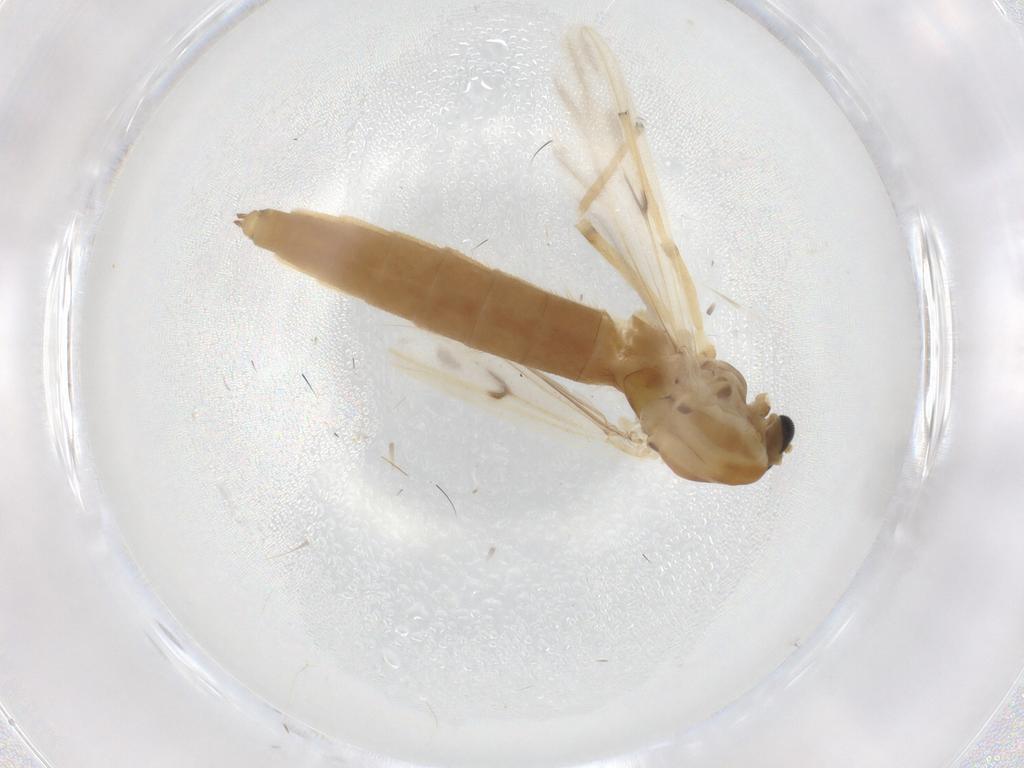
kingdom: Animalia
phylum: Arthropoda
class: Insecta
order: Diptera
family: Chironomidae
